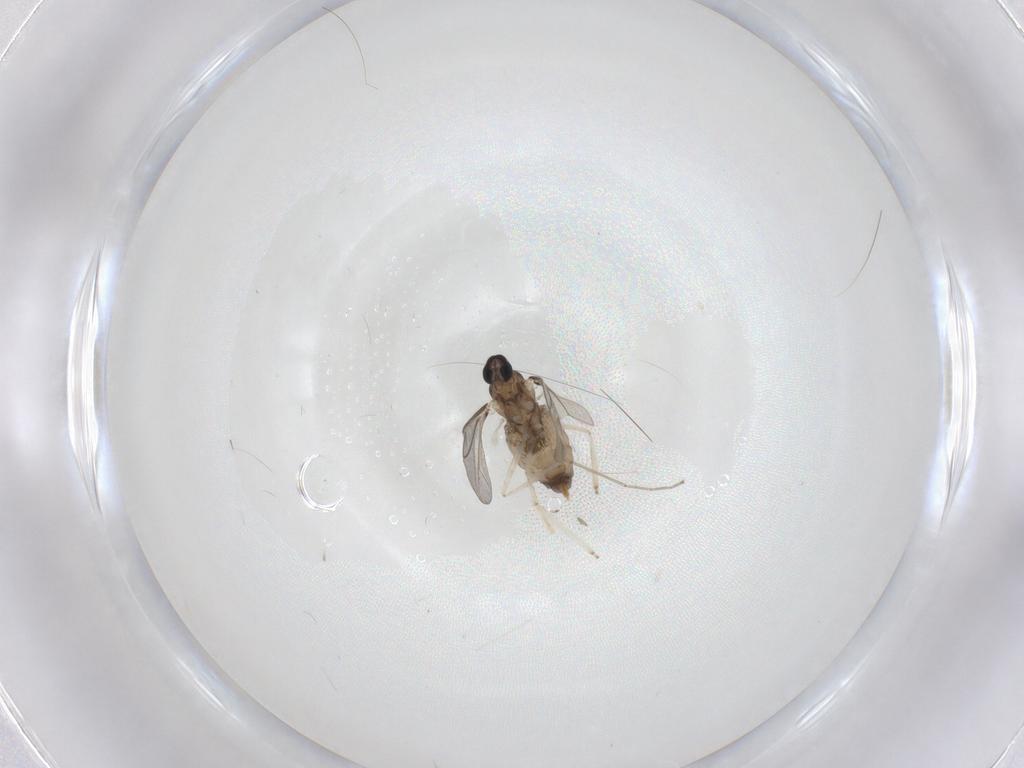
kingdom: Animalia
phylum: Arthropoda
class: Insecta
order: Diptera
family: Cecidomyiidae
